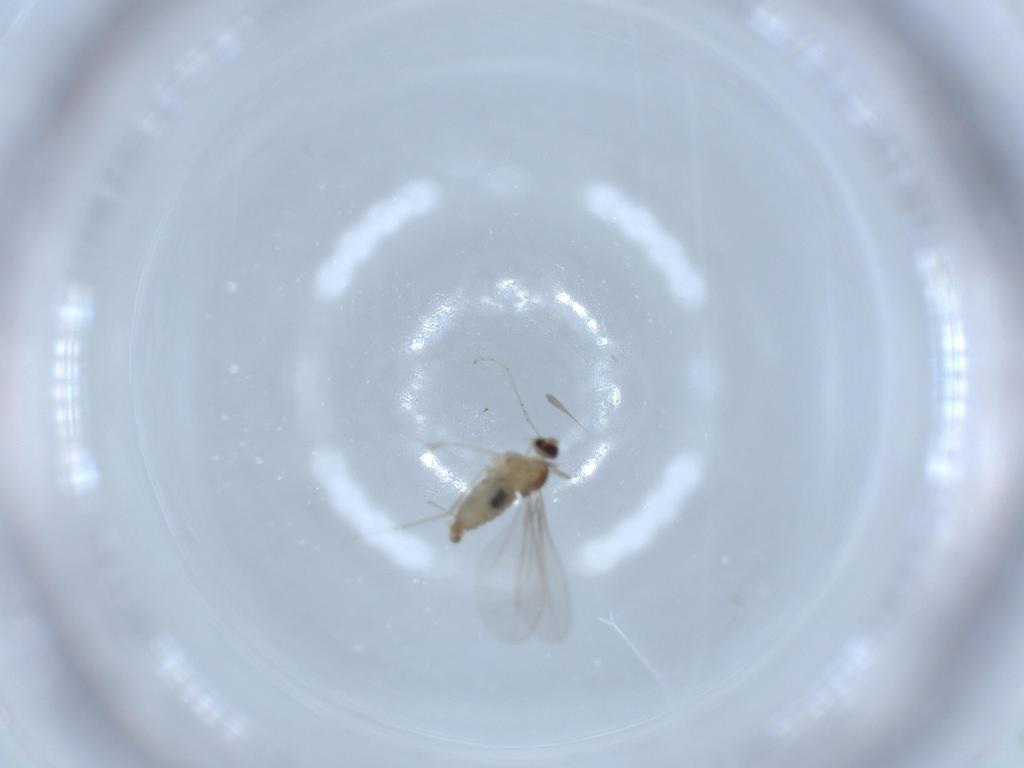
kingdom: Animalia
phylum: Arthropoda
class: Insecta
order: Diptera
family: Cecidomyiidae
